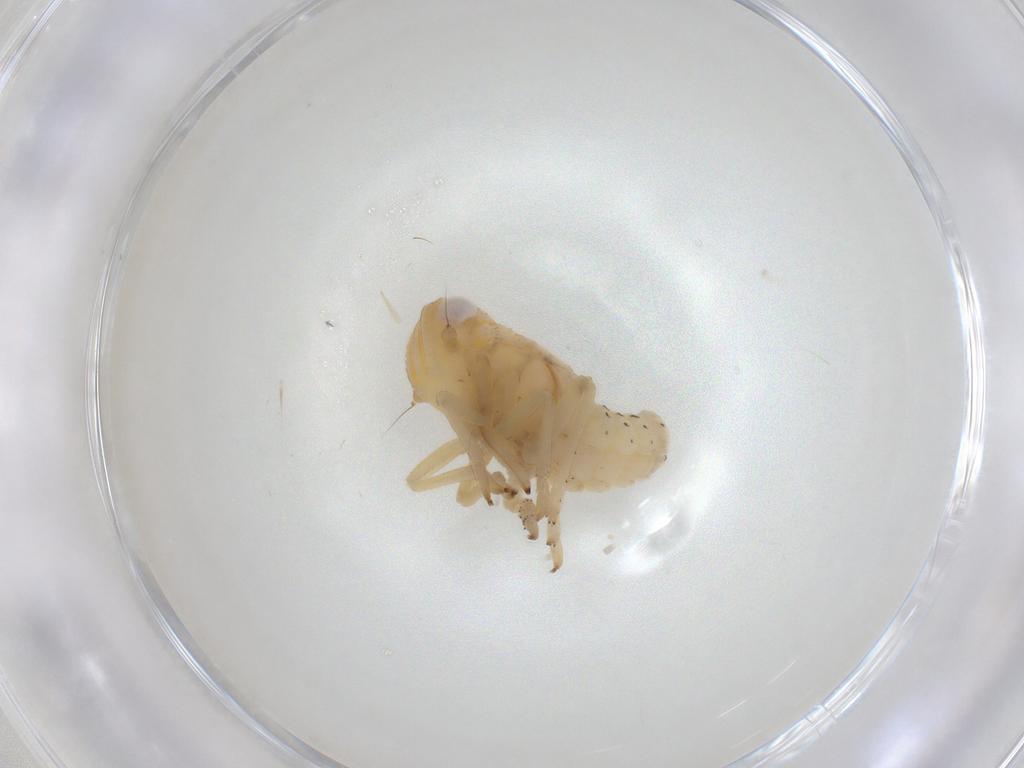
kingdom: Animalia
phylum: Arthropoda
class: Insecta
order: Hemiptera
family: Tropiduchidae
